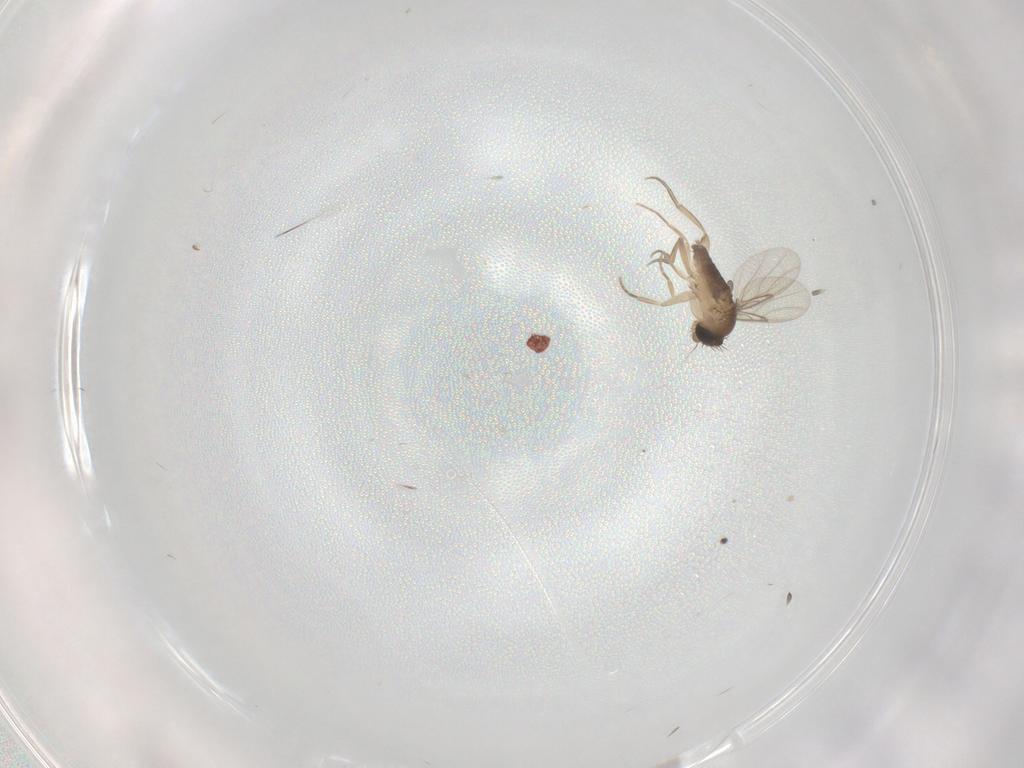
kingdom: Animalia
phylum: Arthropoda
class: Insecta
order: Diptera
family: Phoridae
